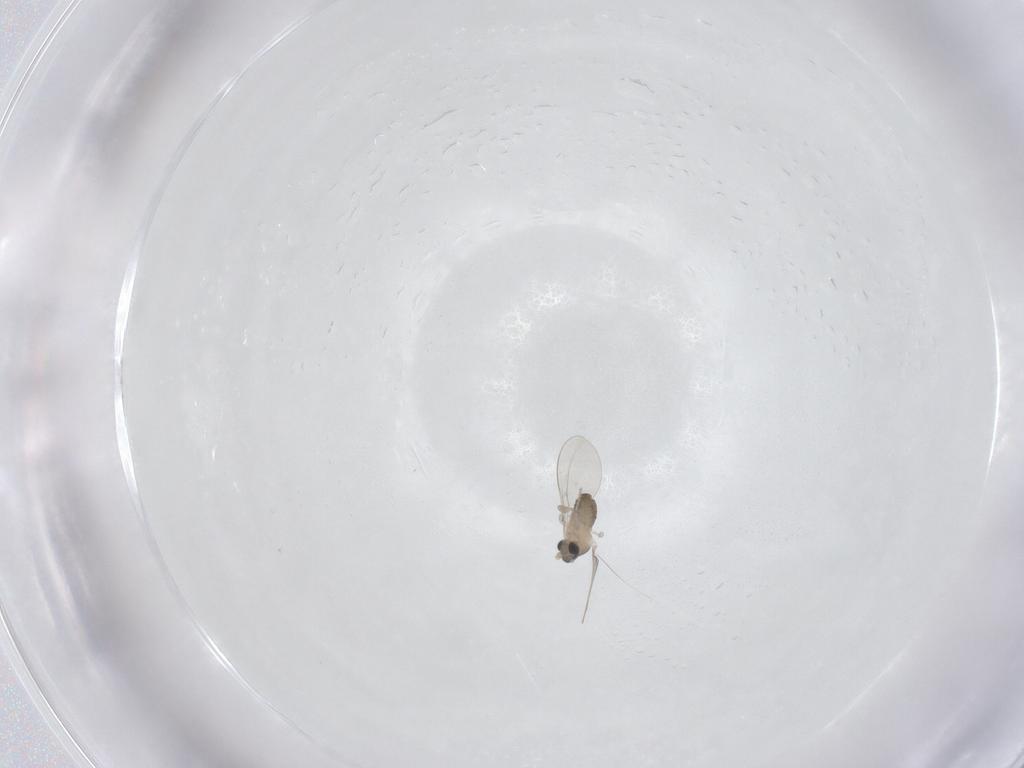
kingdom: Animalia
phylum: Arthropoda
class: Insecta
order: Diptera
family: Cecidomyiidae
